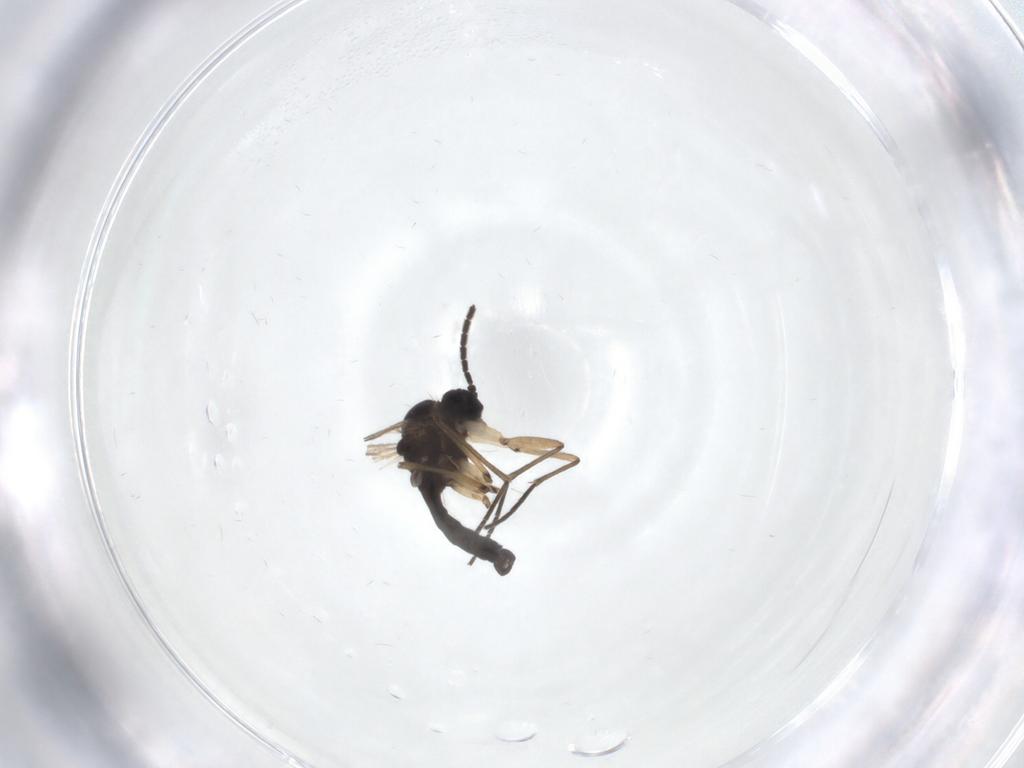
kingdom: Animalia
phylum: Arthropoda
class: Insecta
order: Diptera
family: Sciaridae
